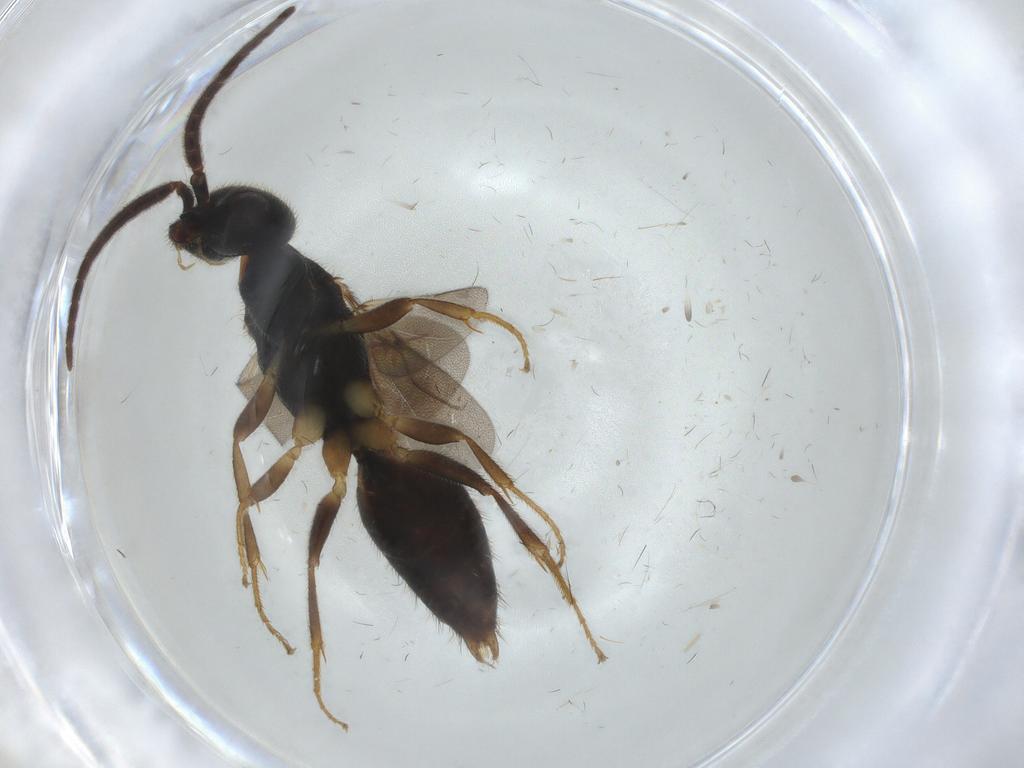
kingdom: Animalia
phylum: Arthropoda
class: Insecta
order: Hymenoptera
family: Bethylidae
